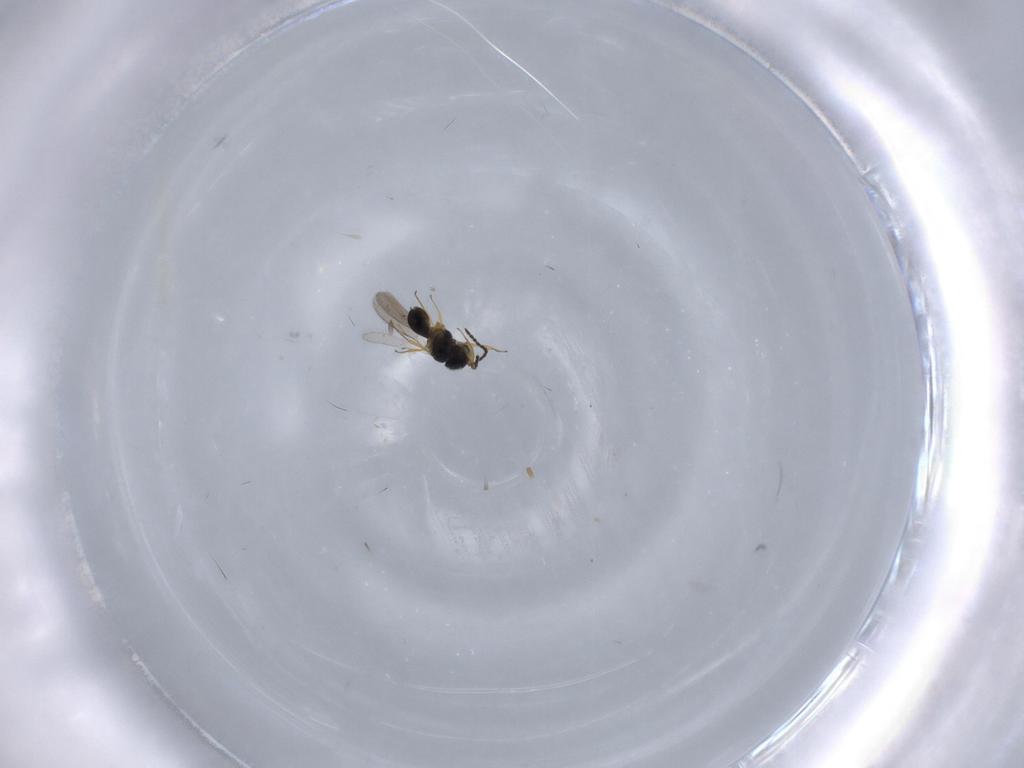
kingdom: Animalia
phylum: Arthropoda
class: Insecta
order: Hymenoptera
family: Scelionidae
